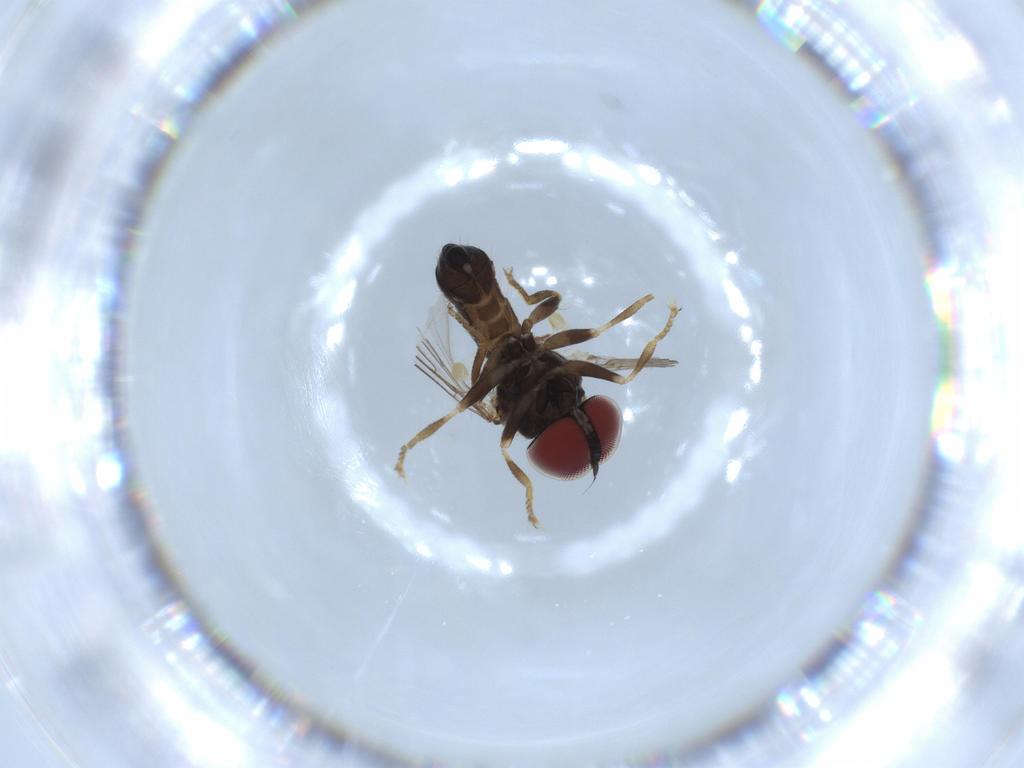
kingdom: Animalia
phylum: Arthropoda
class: Insecta
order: Diptera
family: Pipunculidae
